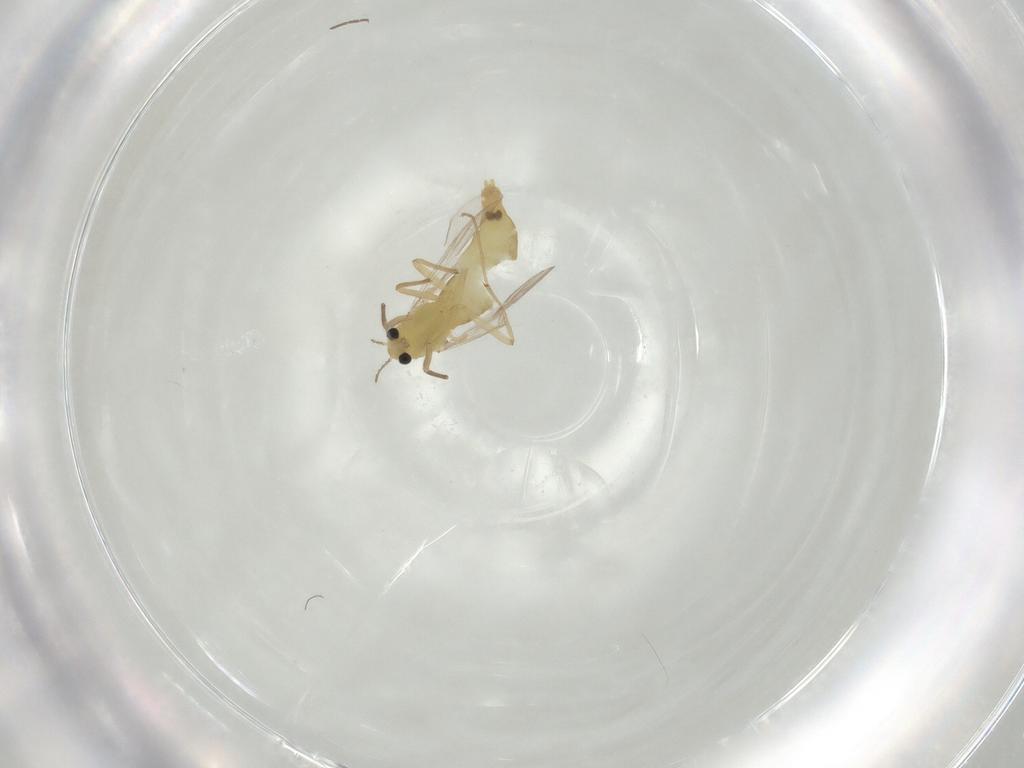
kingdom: Animalia
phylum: Arthropoda
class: Insecta
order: Diptera
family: Chironomidae
